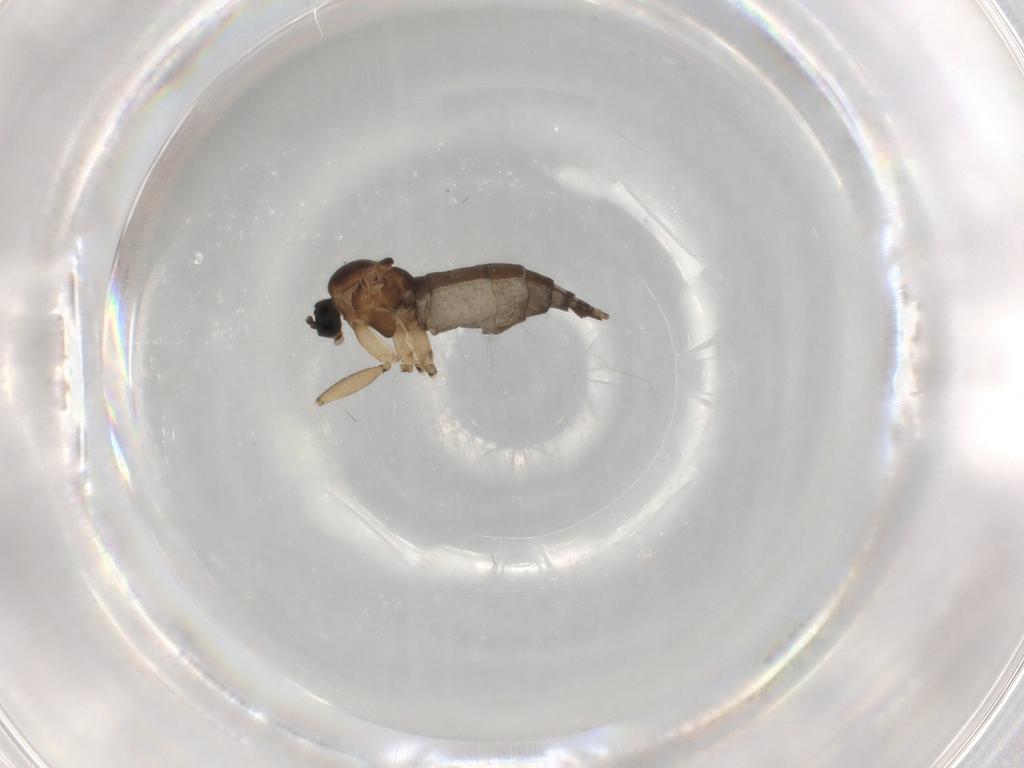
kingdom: Animalia
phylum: Arthropoda
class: Insecta
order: Diptera
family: Sciaridae
